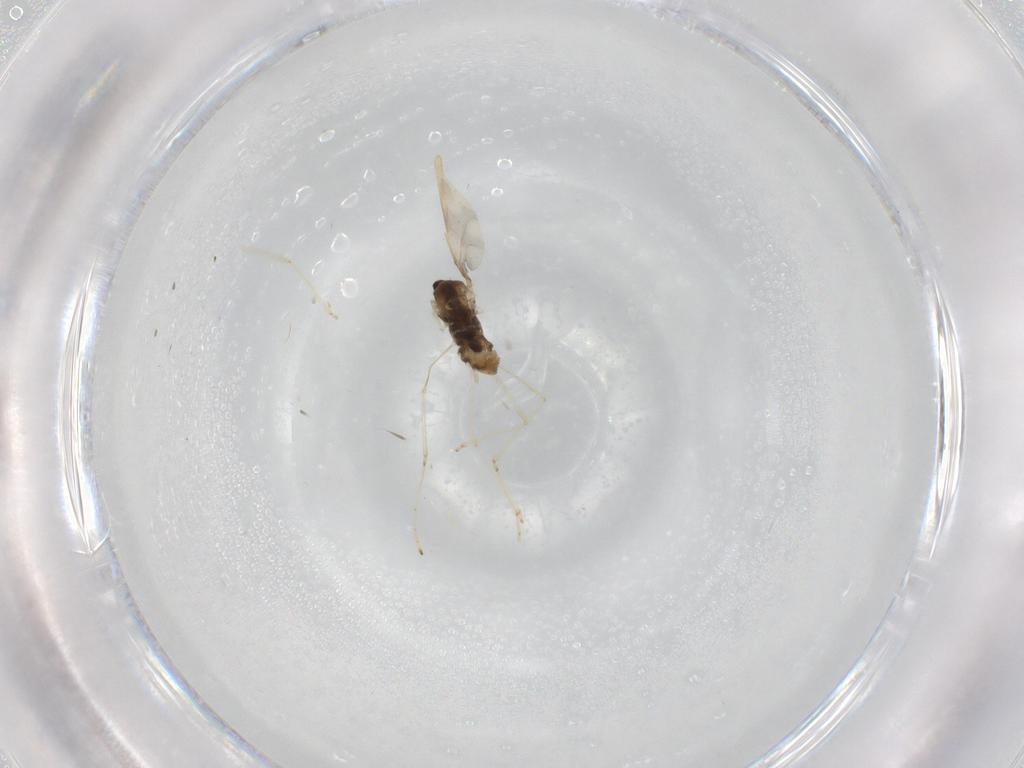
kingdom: Animalia
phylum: Arthropoda
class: Insecta
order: Diptera
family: Cecidomyiidae
